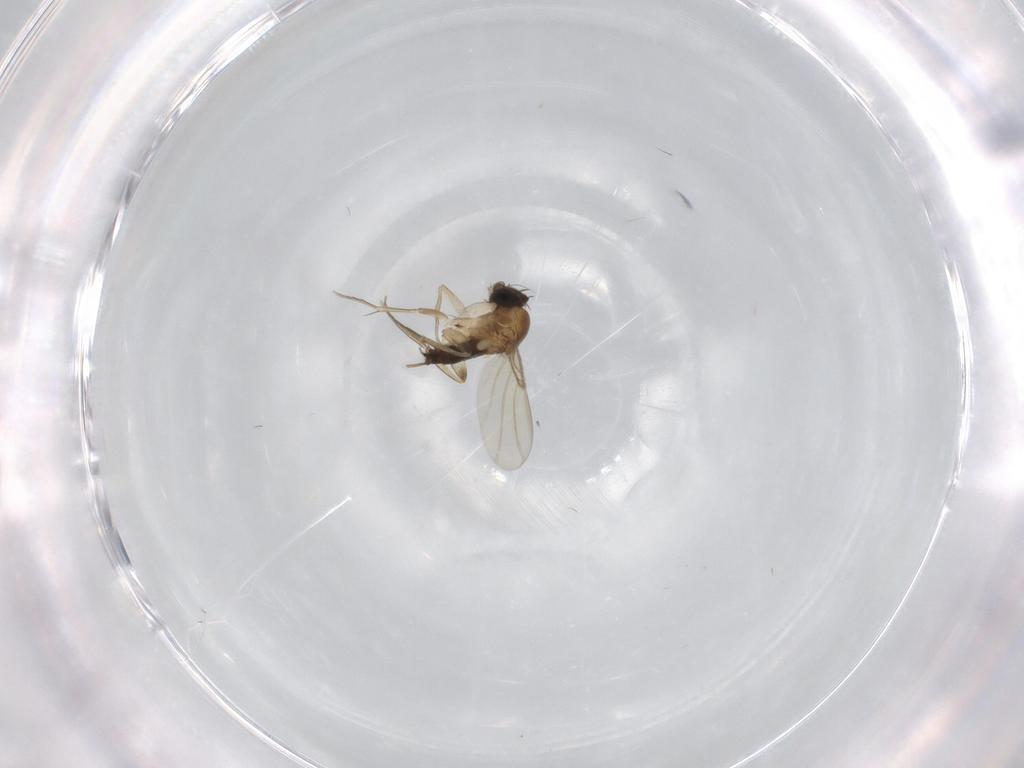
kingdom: Animalia
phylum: Arthropoda
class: Insecta
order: Diptera
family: Phoridae
